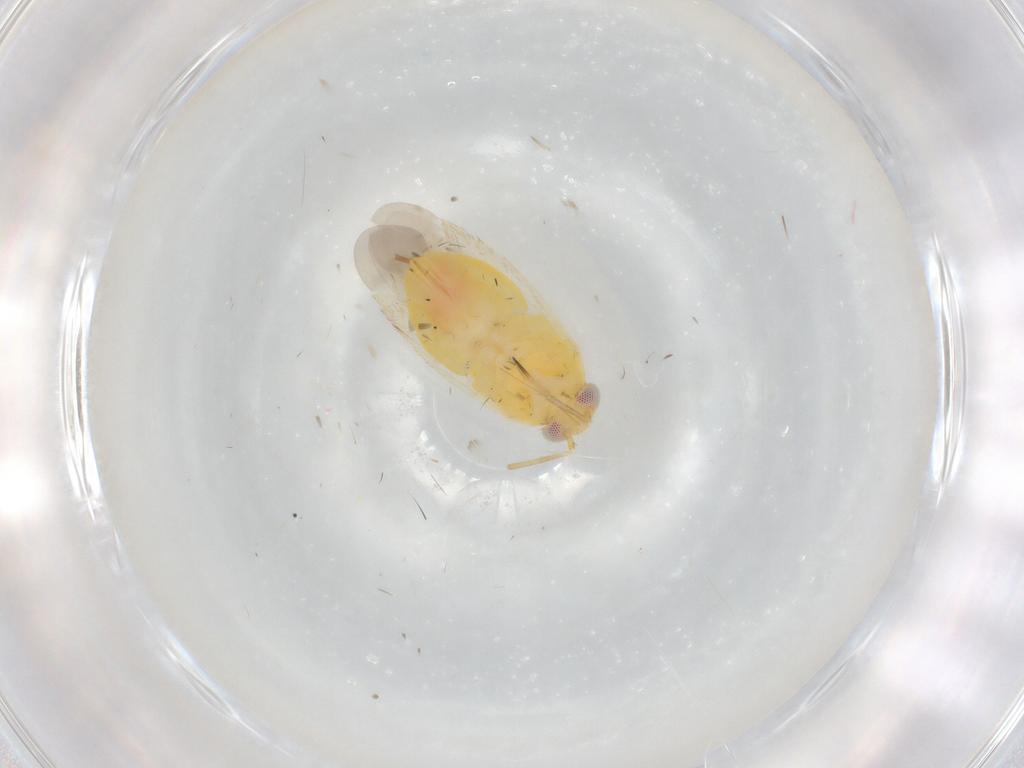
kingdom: Animalia
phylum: Arthropoda
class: Insecta
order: Hemiptera
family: Miridae
